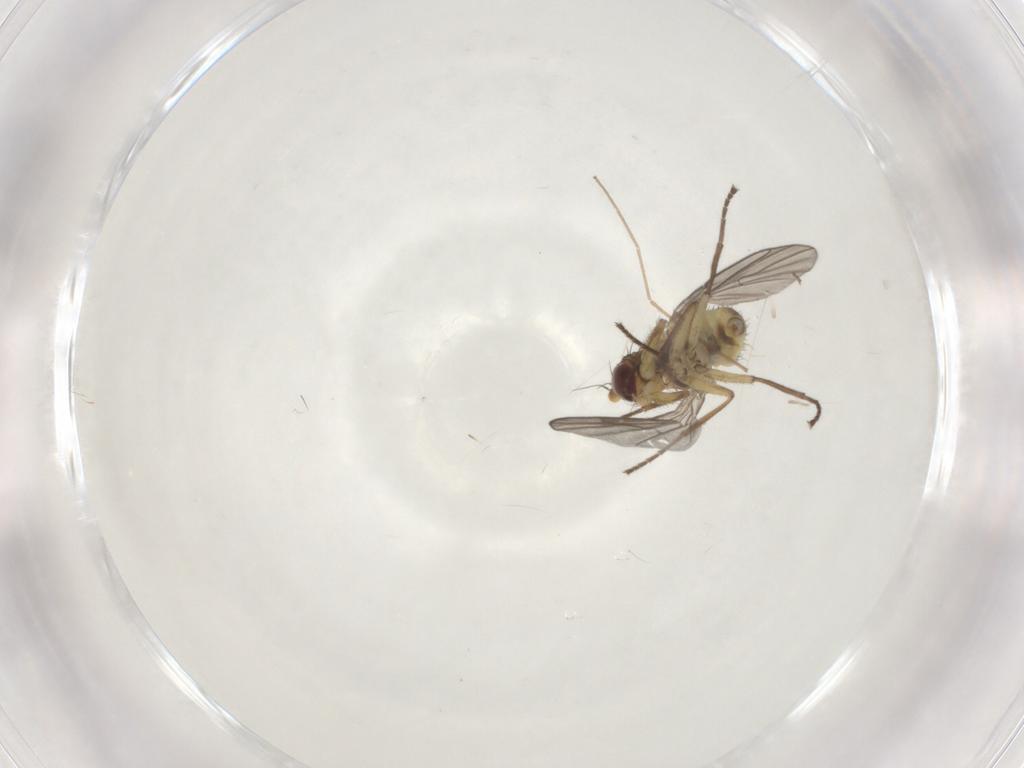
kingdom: Animalia
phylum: Arthropoda
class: Insecta
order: Diptera
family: Agromyzidae
